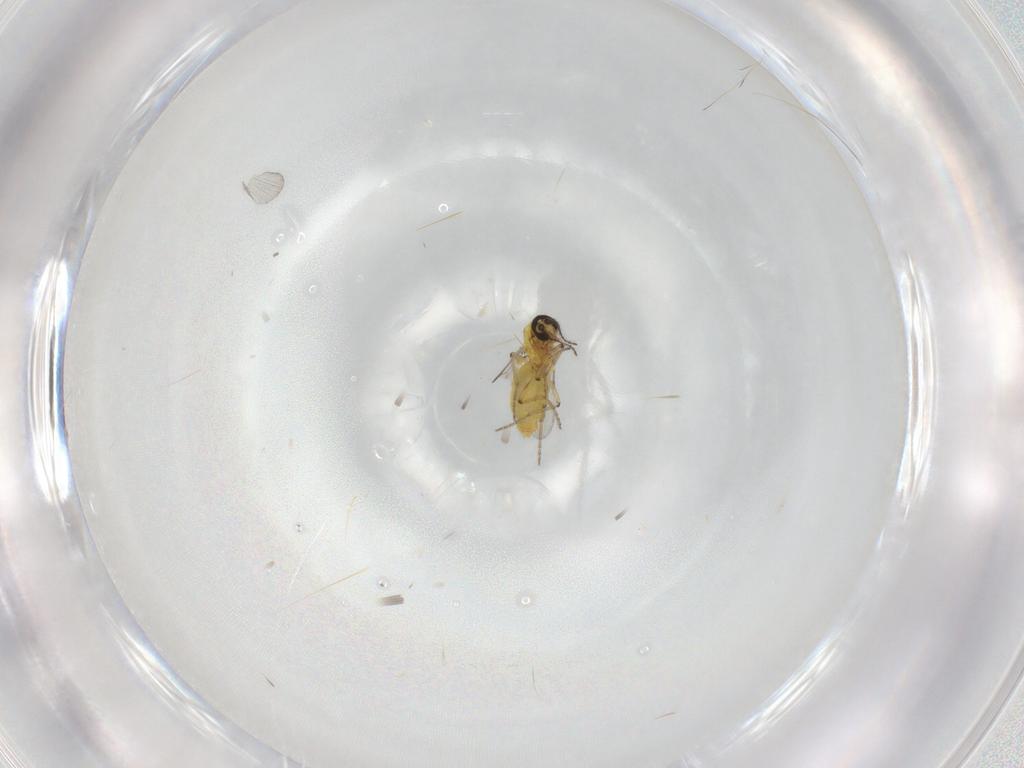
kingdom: Animalia
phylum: Arthropoda
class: Insecta
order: Diptera
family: Ceratopogonidae
